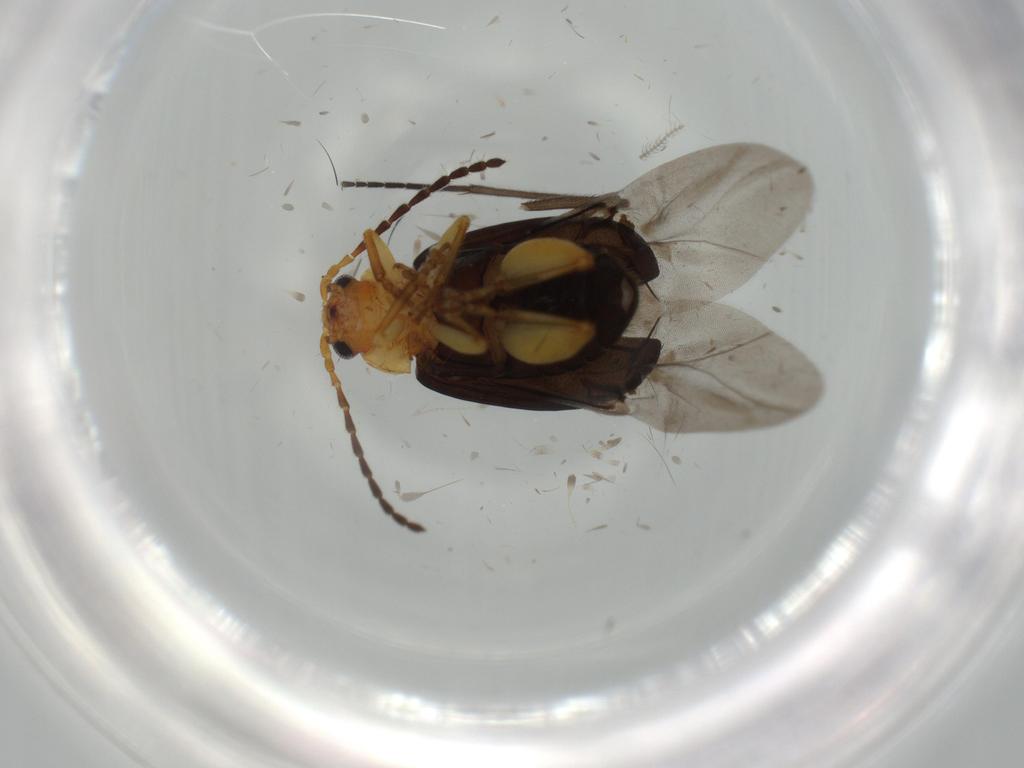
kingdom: Animalia
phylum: Arthropoda
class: Insecta
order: Coleoptera
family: Chrysomelidae
